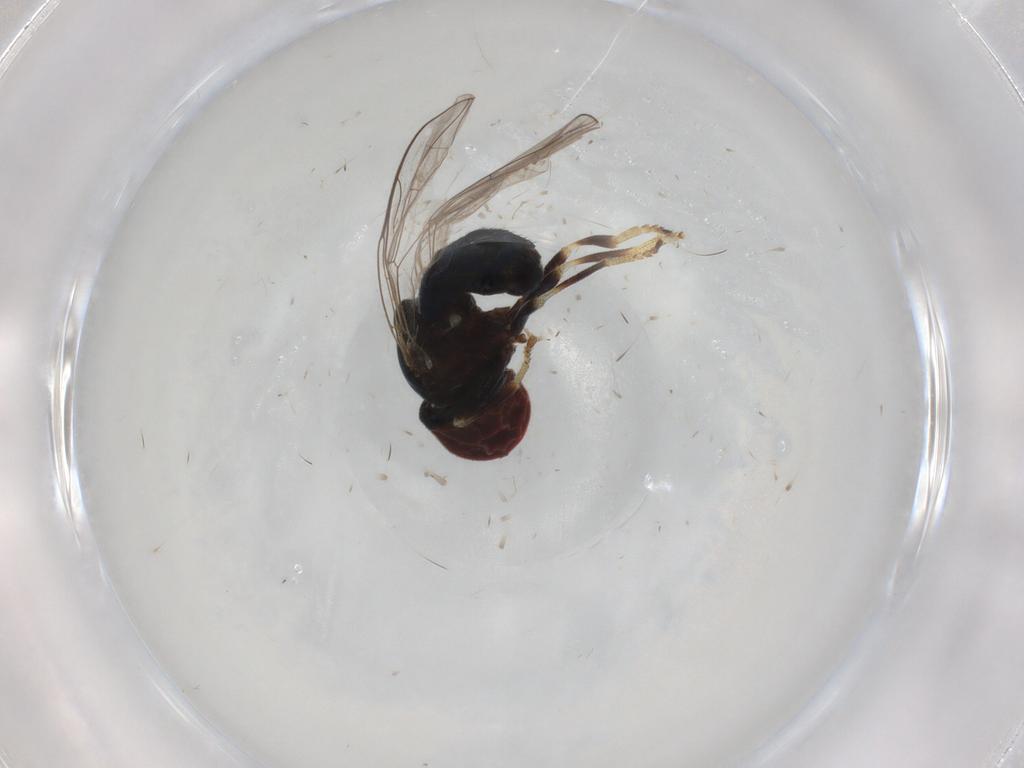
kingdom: Animalia
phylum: Arthropoda
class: Insecta
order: Diptera
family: Pipunculidae
